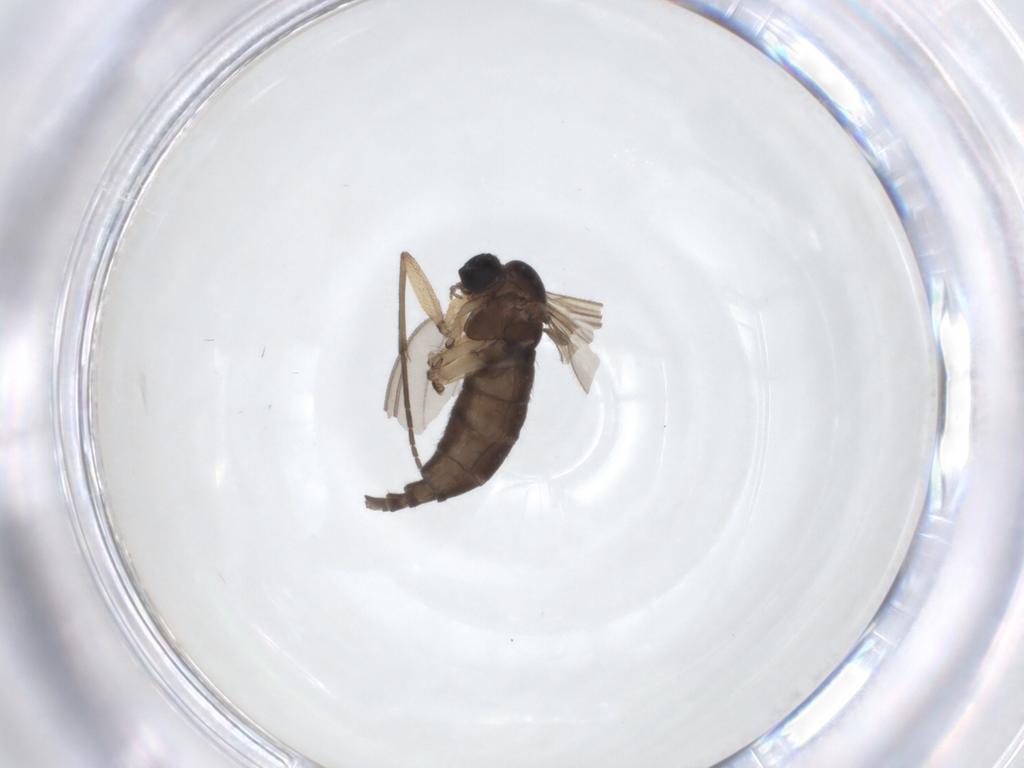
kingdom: Animalia
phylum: Arthropoda
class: Insecta
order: Diptera
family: Sciaridae
